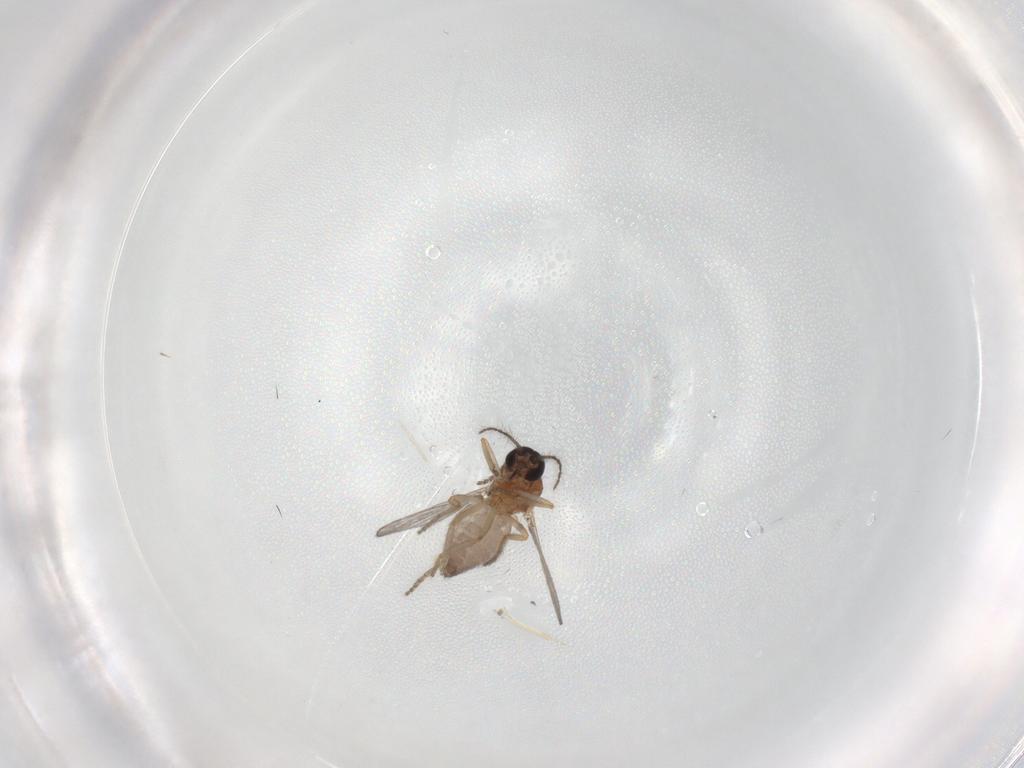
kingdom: Animalia
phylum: Arthropoda
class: Insecta
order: Diptera
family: Ceratopogonidae
